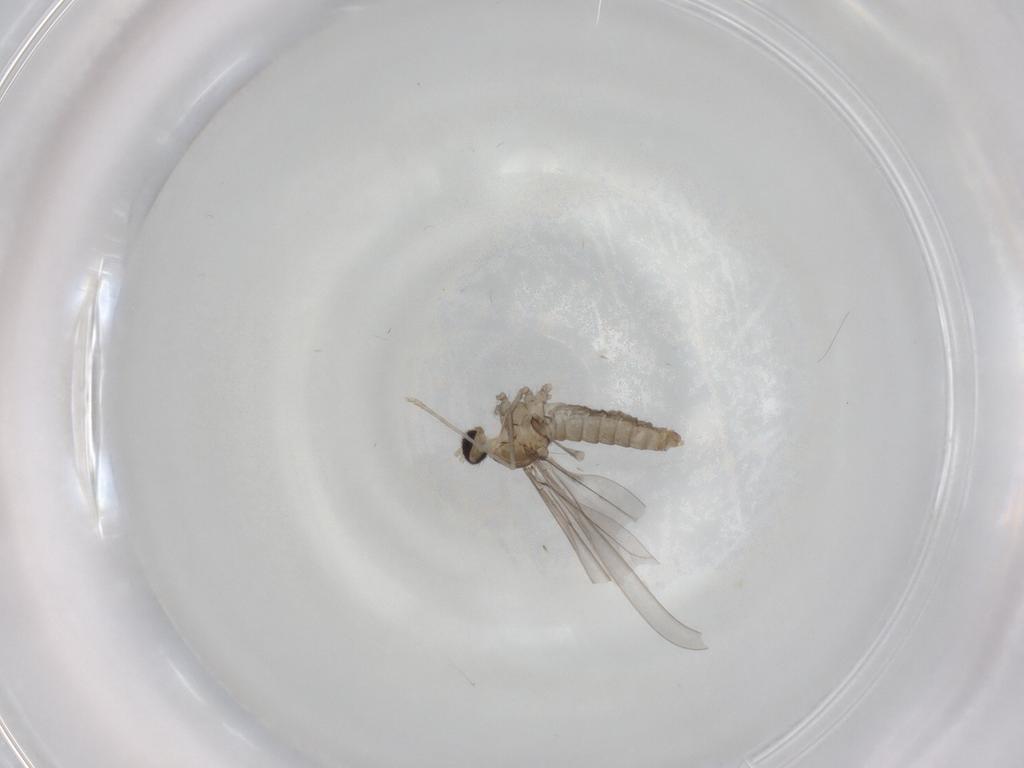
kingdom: Animalia
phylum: Arthropoda
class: Insecta
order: Diptera
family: Cecidomyiidae
